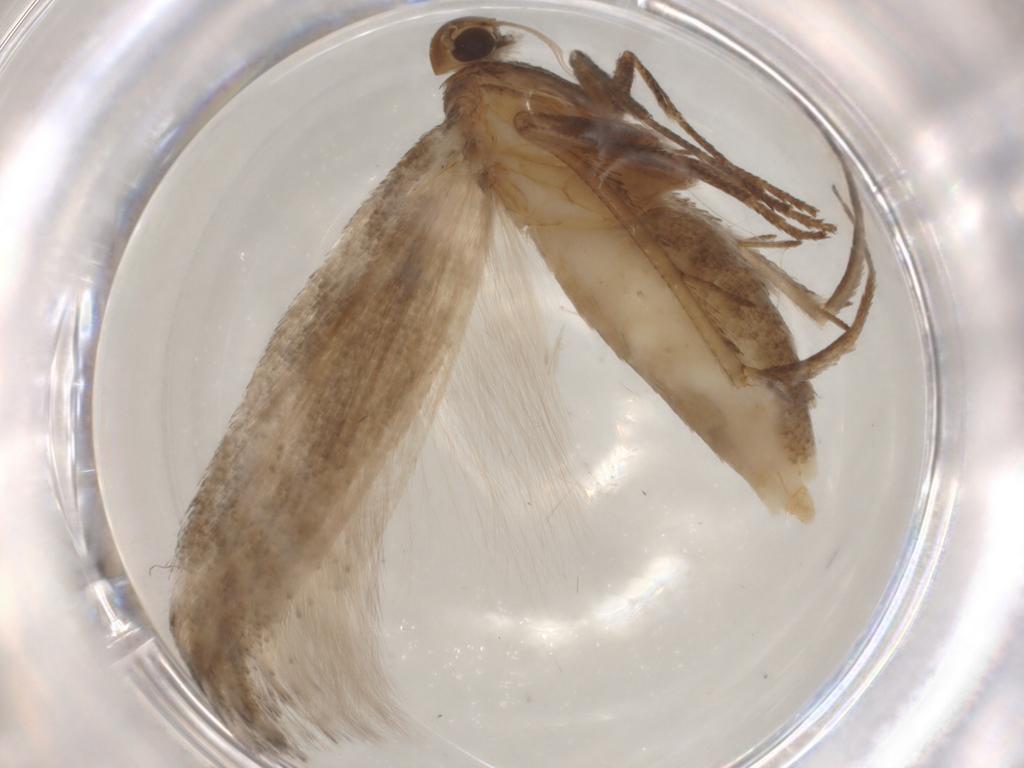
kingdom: Animalia
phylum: Arthropoda
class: Insecta
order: Lepidoptera
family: Gelechiidae
